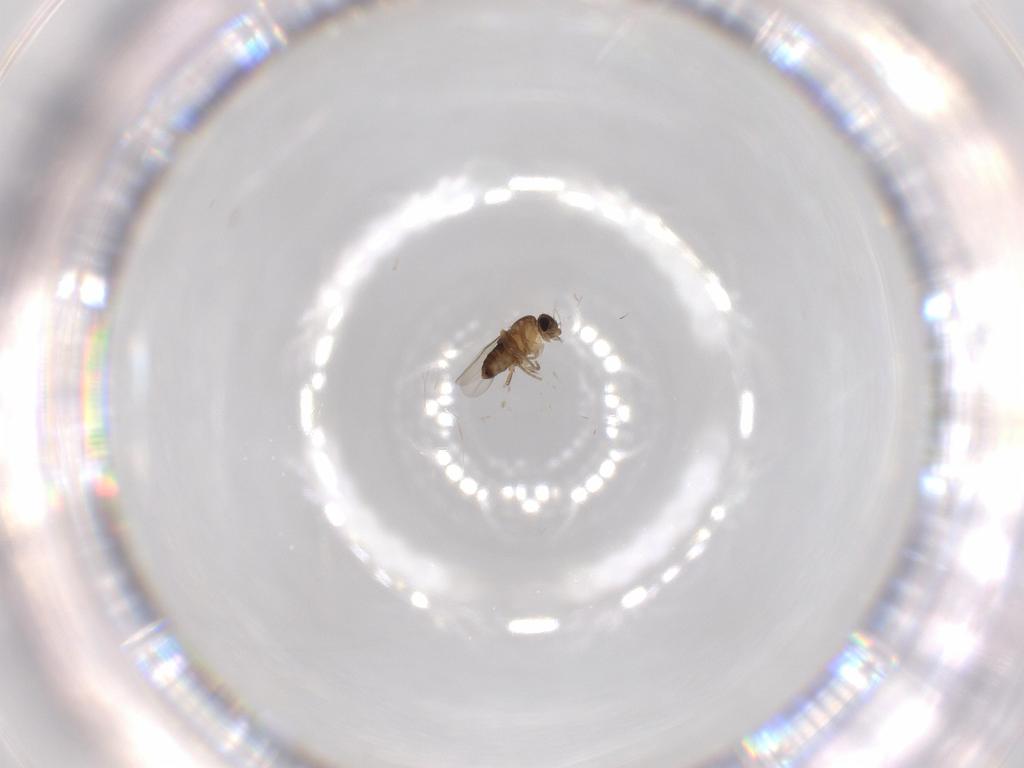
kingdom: Animalia
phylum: Arthropoda
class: Insecta
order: Diptera
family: Phoridae
